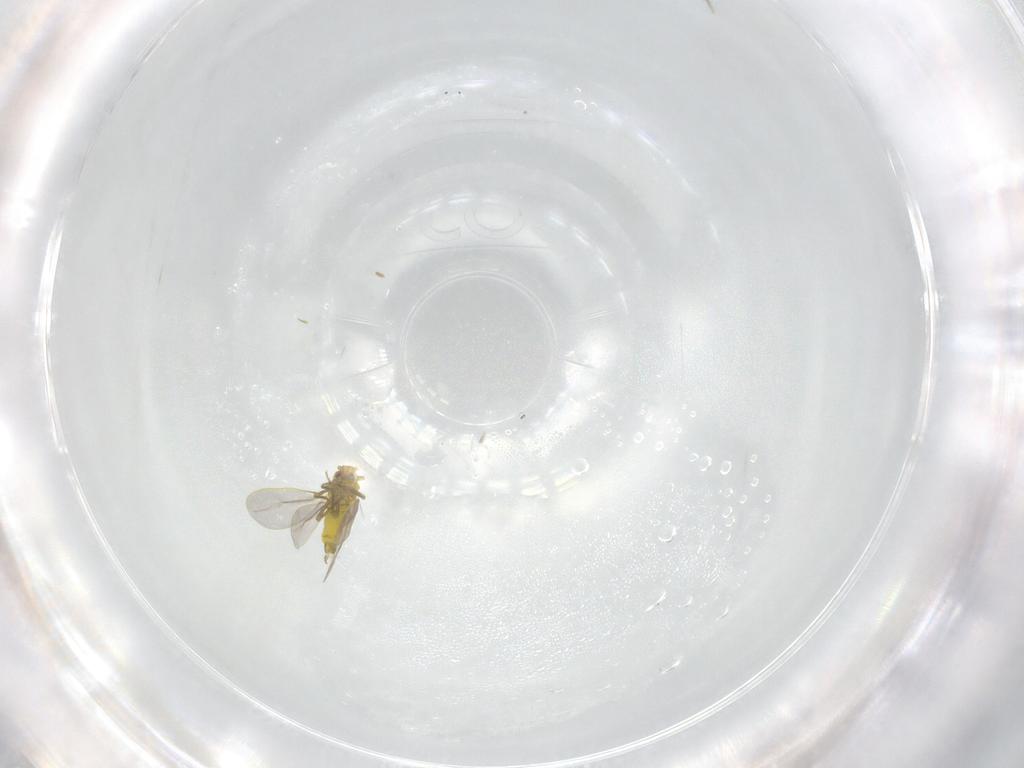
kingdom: Animalia
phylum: Arthropoda
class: Insecta
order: Hemiptera
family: Aleyrodidae
